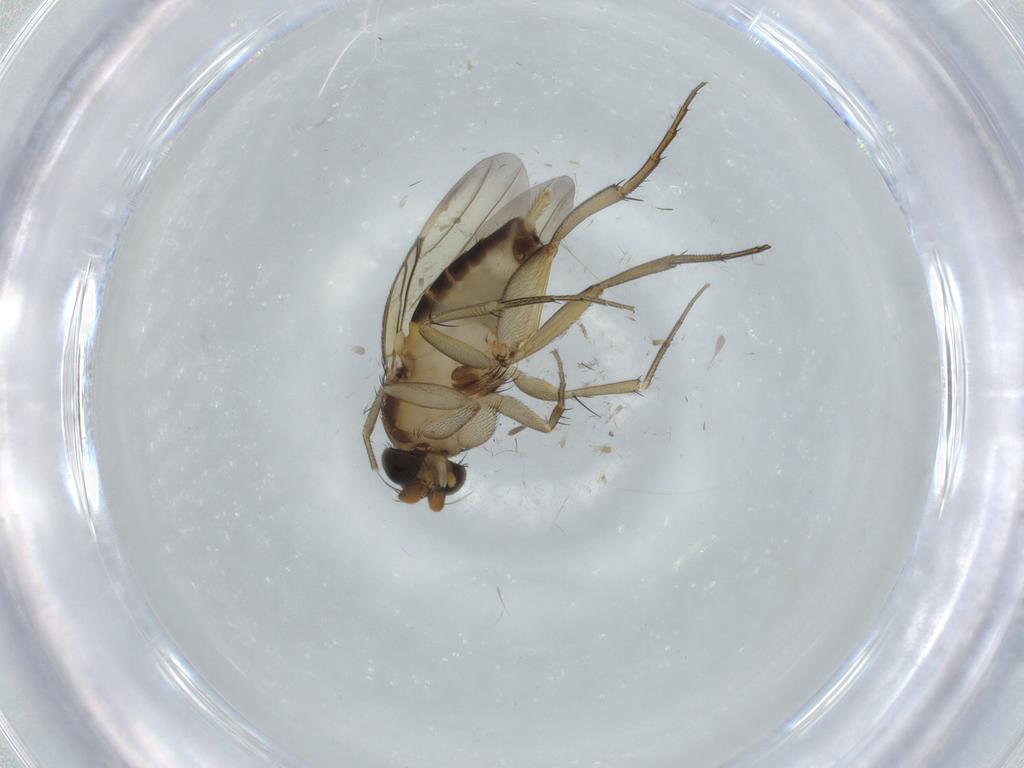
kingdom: Animalia
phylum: Arthropoda
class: Insecta
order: Diptera
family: Phoridae
